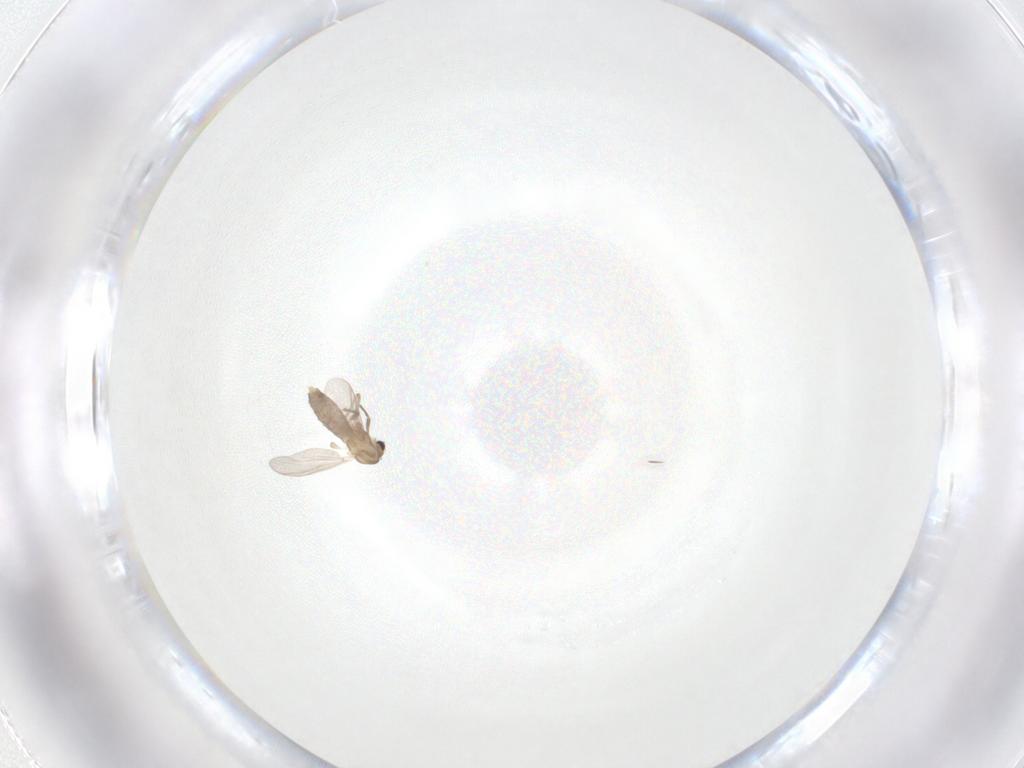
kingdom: Animalia
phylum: Arthropoda
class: Insecta
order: Diptera
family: Chironomidae
